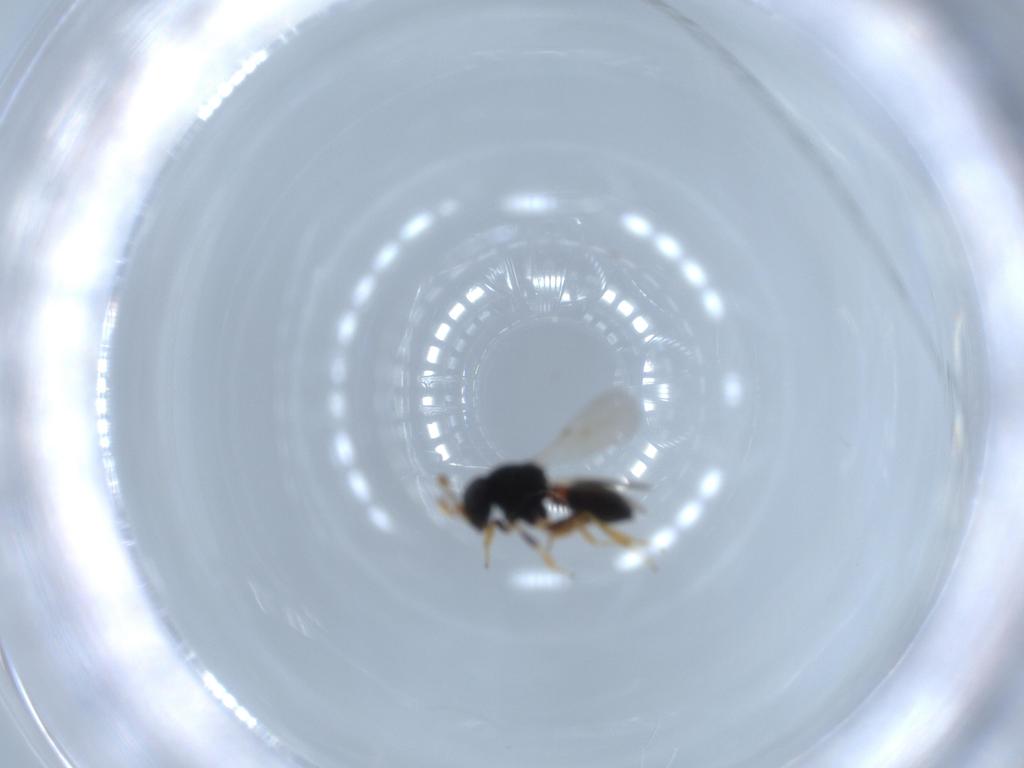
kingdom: Animalia
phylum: Arthropoda
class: Insecta
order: Hymenoptera
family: Scelionidae
